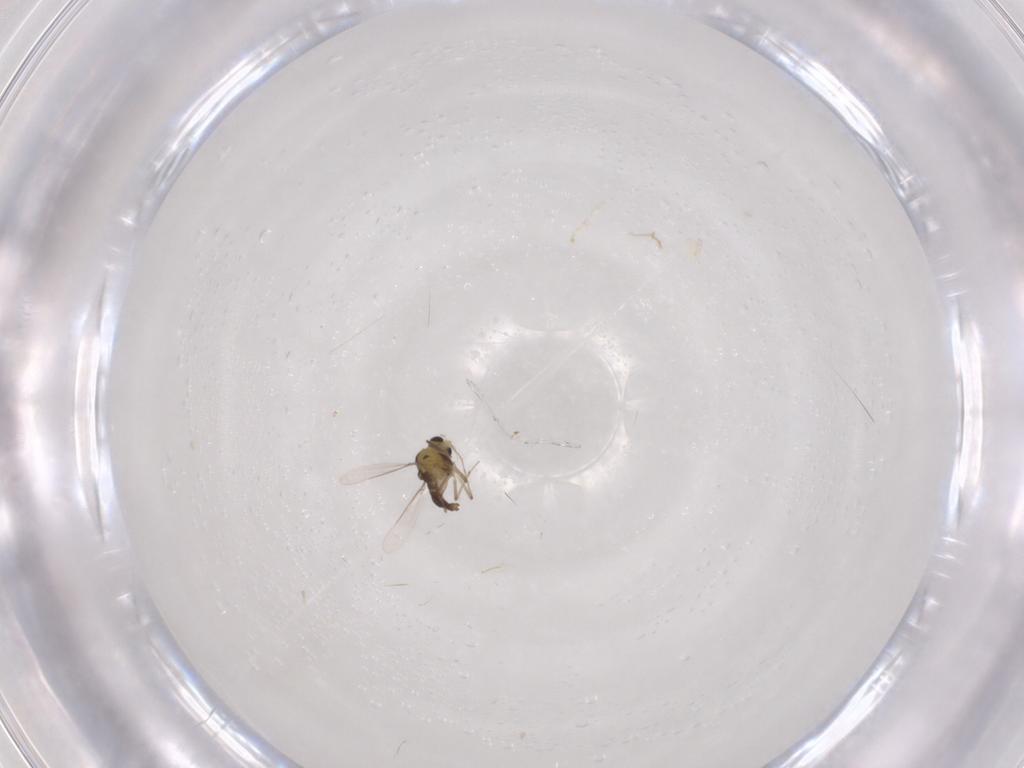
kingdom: Animalia
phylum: Arthropoda
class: Insecta
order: Diptera
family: Chironomidae
